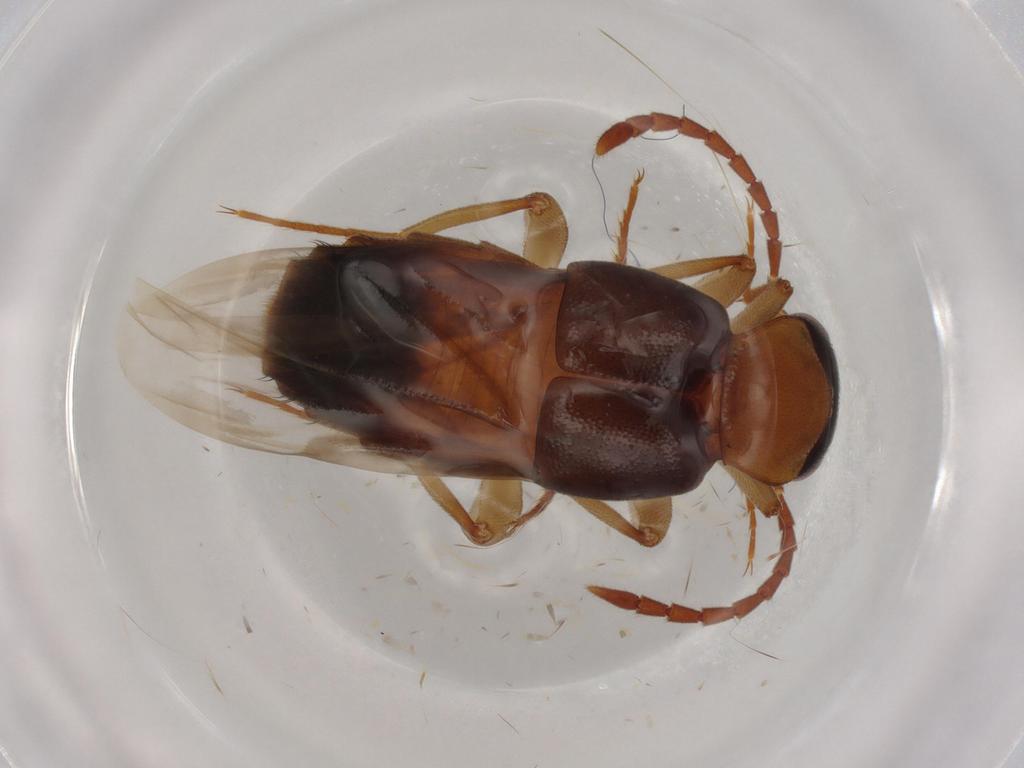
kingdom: Animalia
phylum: Arthropoda
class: Insecta
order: Coleoptera
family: Staphylinidae
